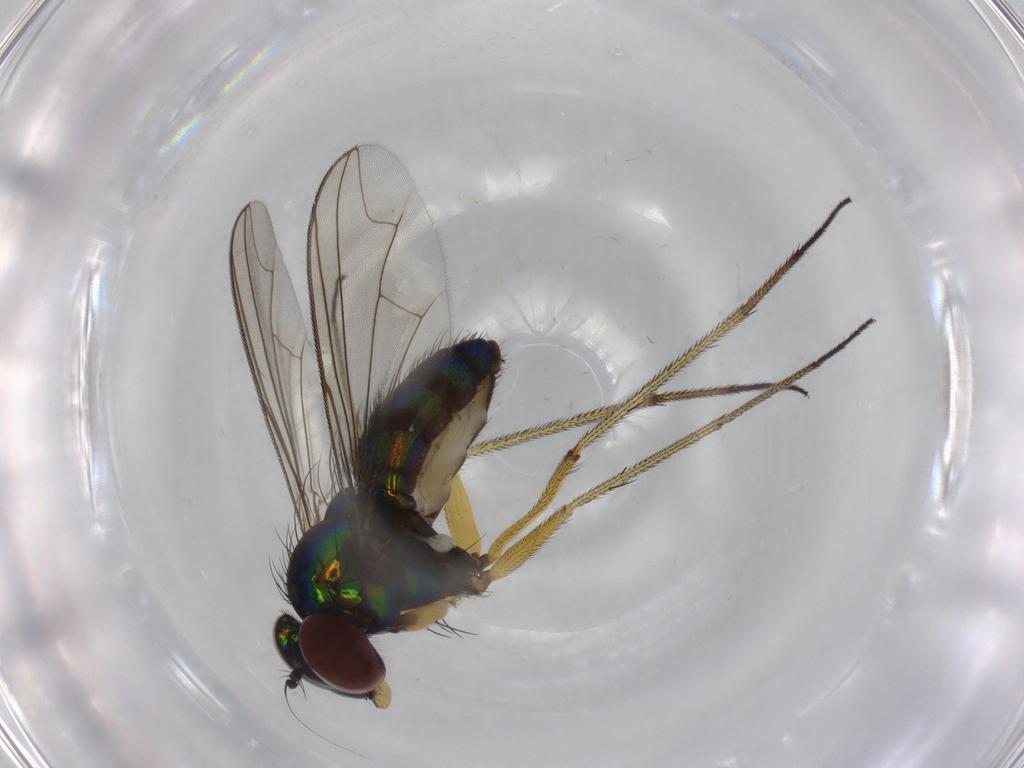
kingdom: Animalia
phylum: Arthropoda
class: Insecta
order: Diptera
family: Dolichopodidae
